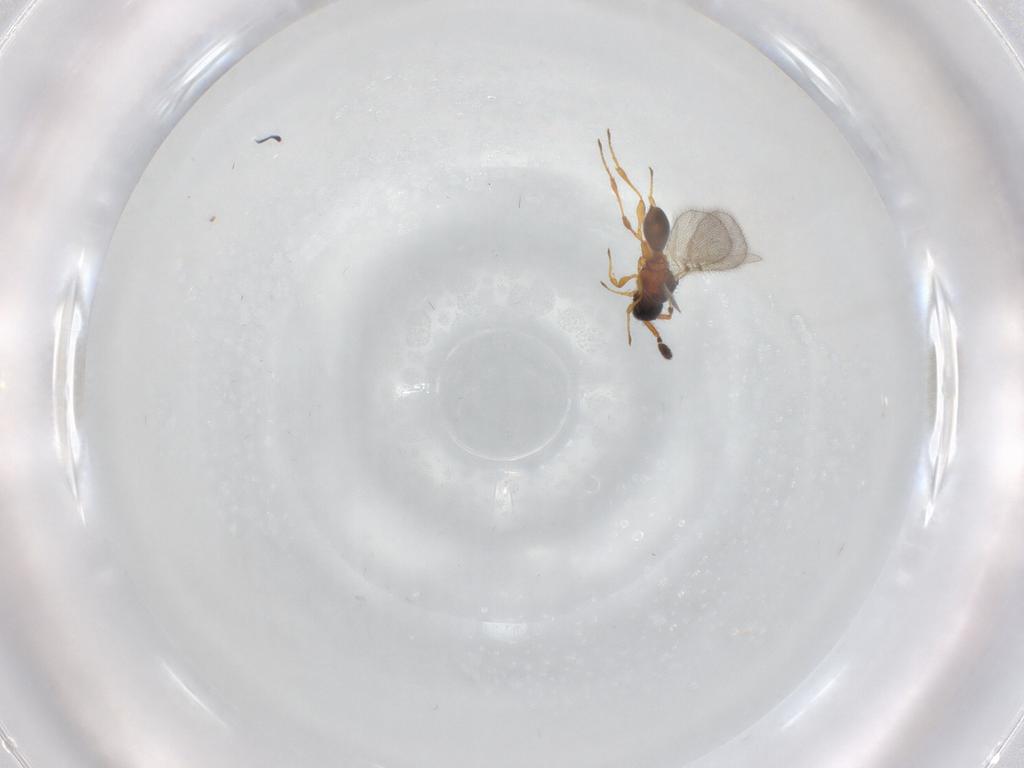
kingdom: Animalia
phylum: Arthropoda
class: Insecta
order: Hymenoptera
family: Diapriidae
